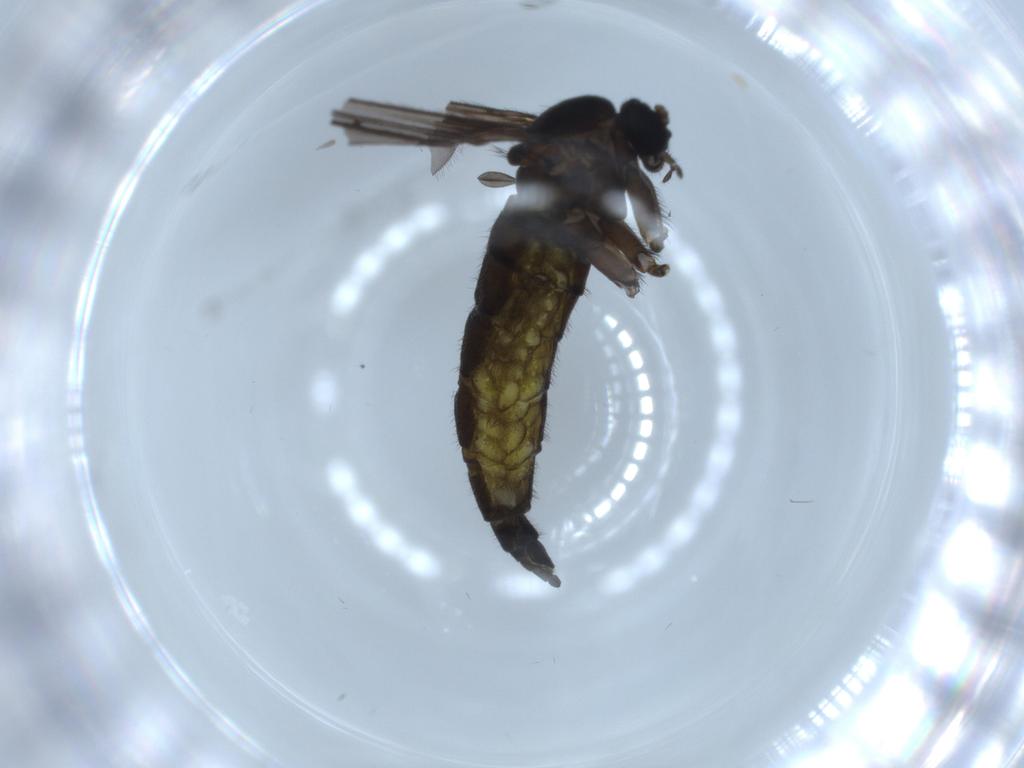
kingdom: Animalia
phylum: Arthropoda
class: Insecta
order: Diptera
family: Sciaridae
